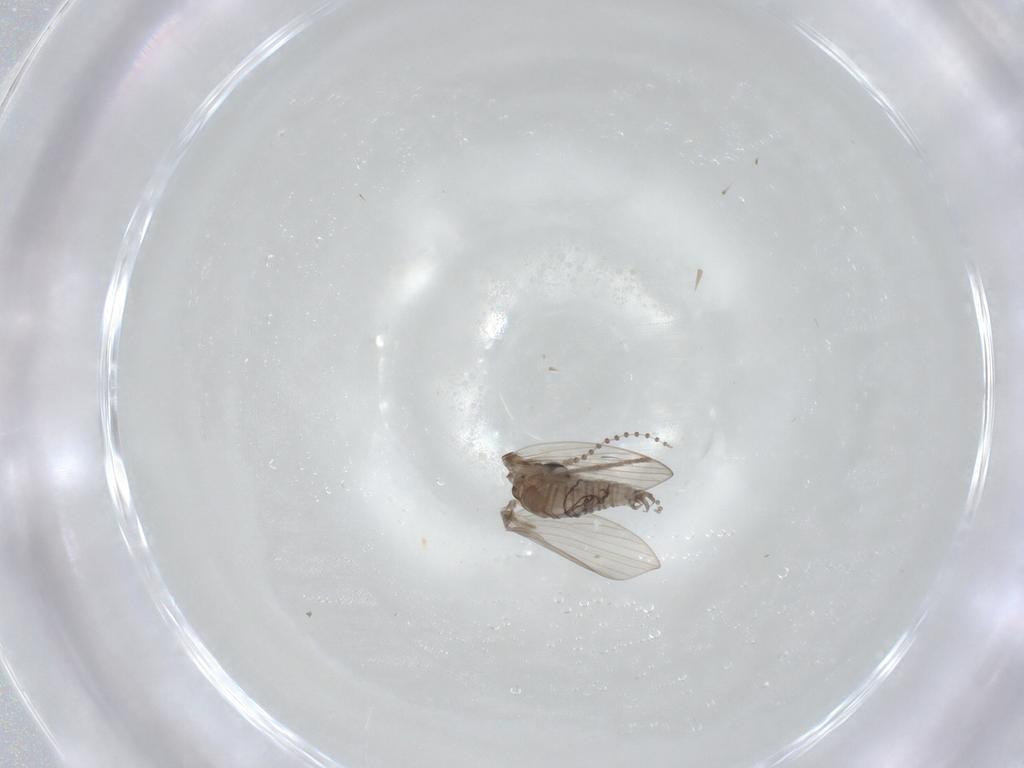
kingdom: Animalia
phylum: Arthropoda
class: Insecta
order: Diptera
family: Psychodidae
